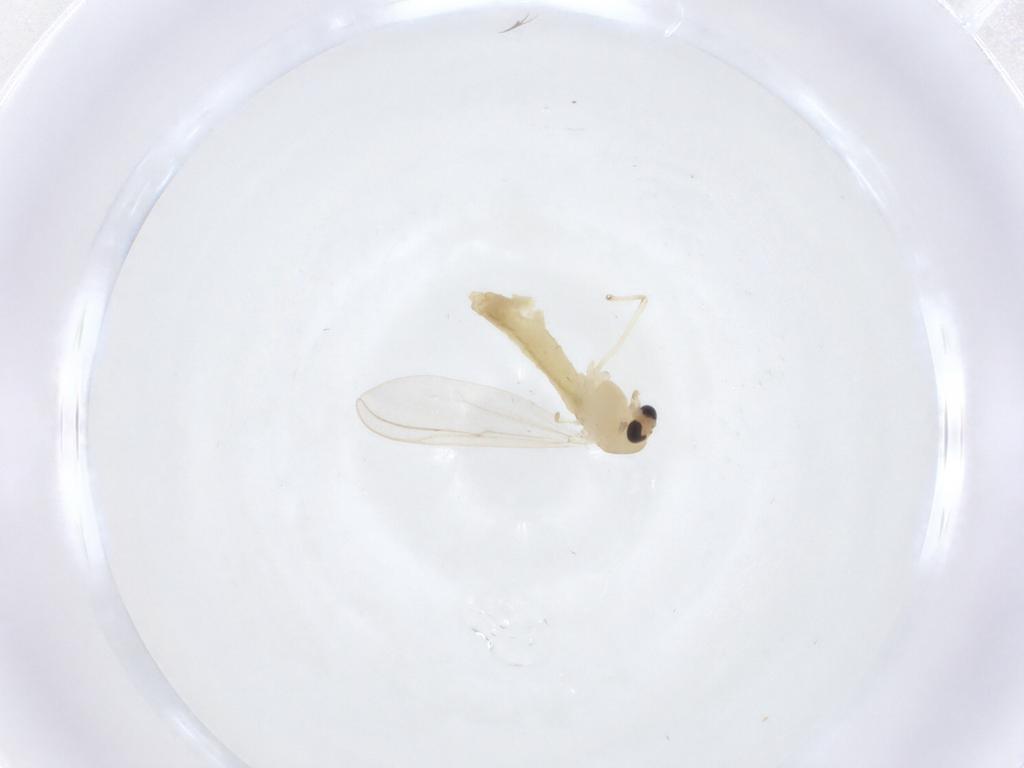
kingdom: Animalia
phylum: Arthropoda
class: Insecta
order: Diptera
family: Chironomidae
